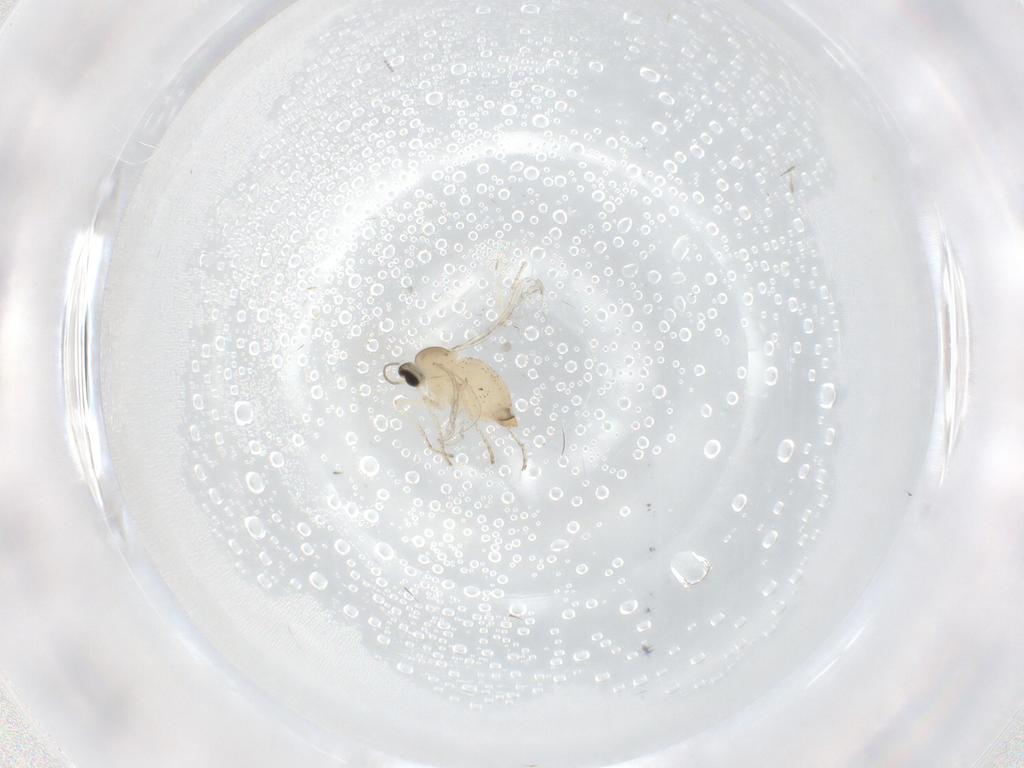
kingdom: Animalia
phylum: Arthropoda
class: Insecta
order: Diptera
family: Cecidomyiidae
